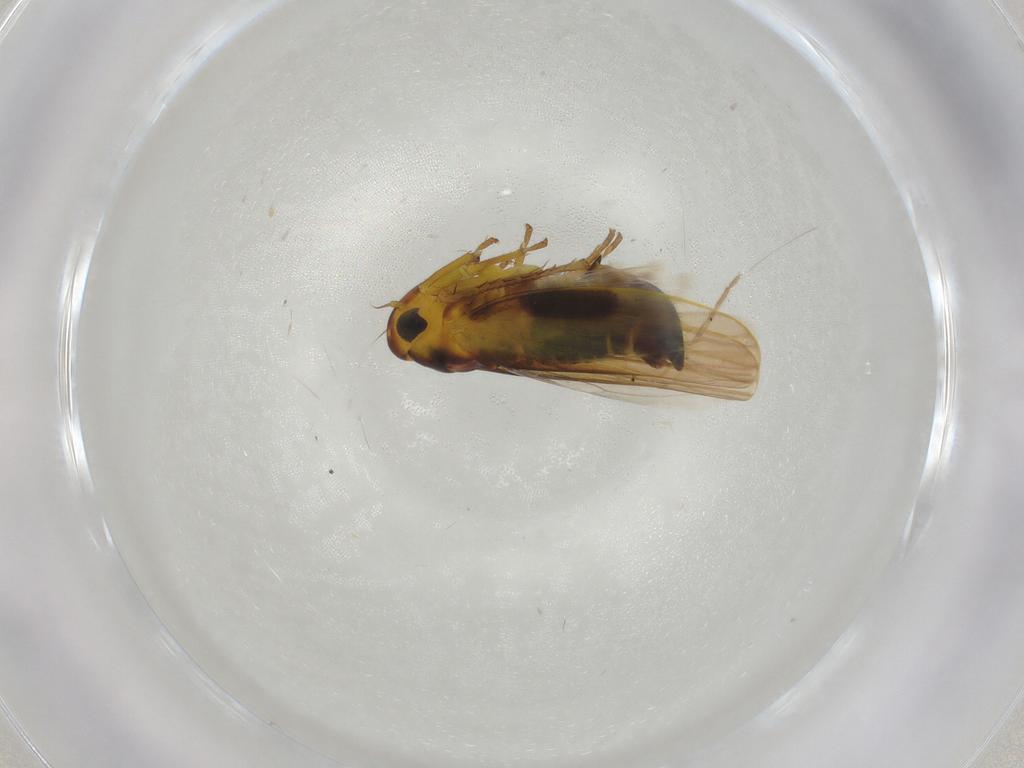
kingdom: Animalia
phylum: Arthropoda
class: Insecta
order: Hemiptera
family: Cicadellidae
